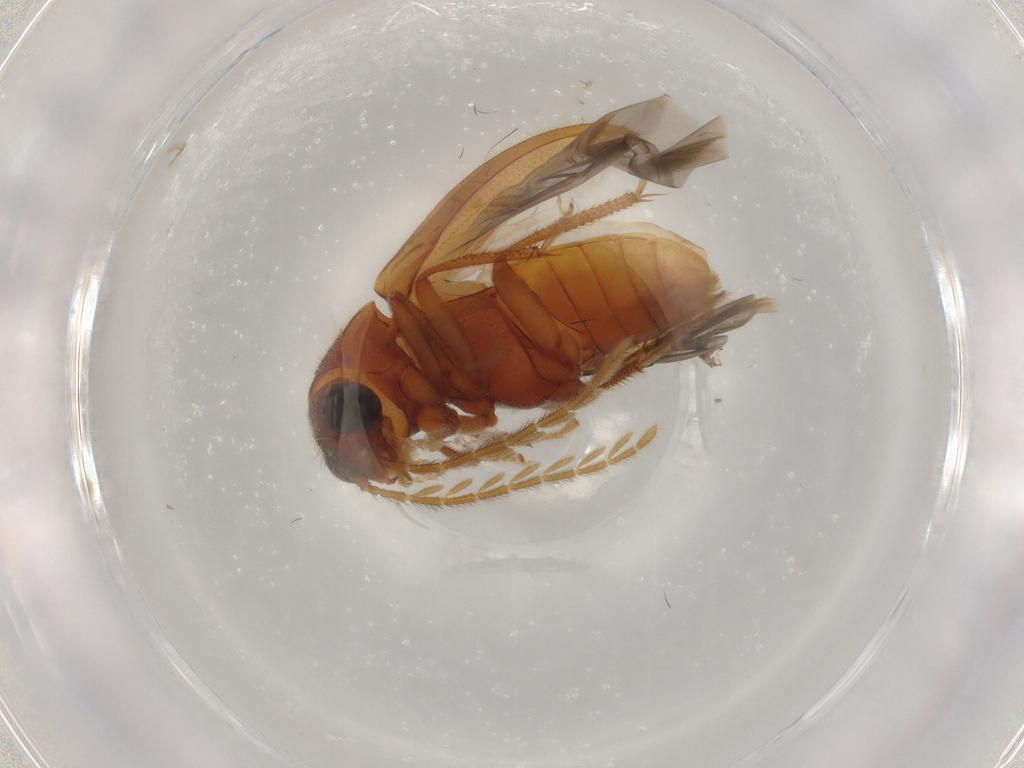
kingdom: Animalia
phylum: Arthropoda
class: Insecta
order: Coleoptera
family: Ptilodactylidae
